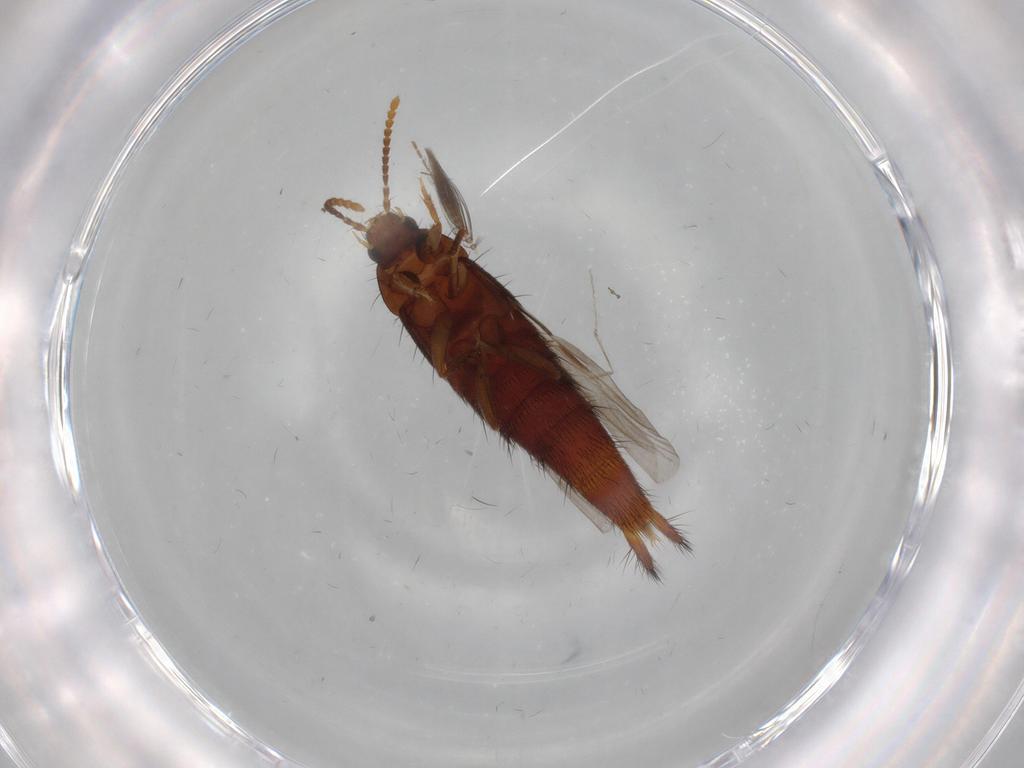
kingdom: Animalia
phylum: Arthropoda
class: Insecta
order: Coleoptera
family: Staphylinidae
